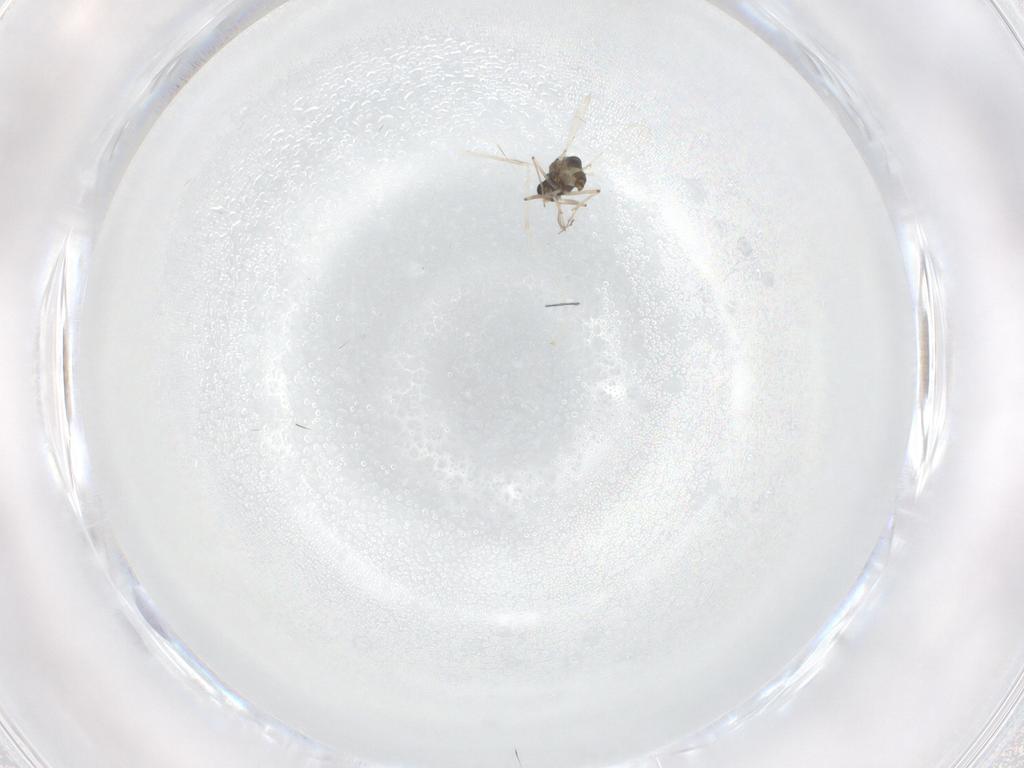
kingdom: Animalia
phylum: Arthropoda
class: Insecta
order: Diptera
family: Chironomidae
